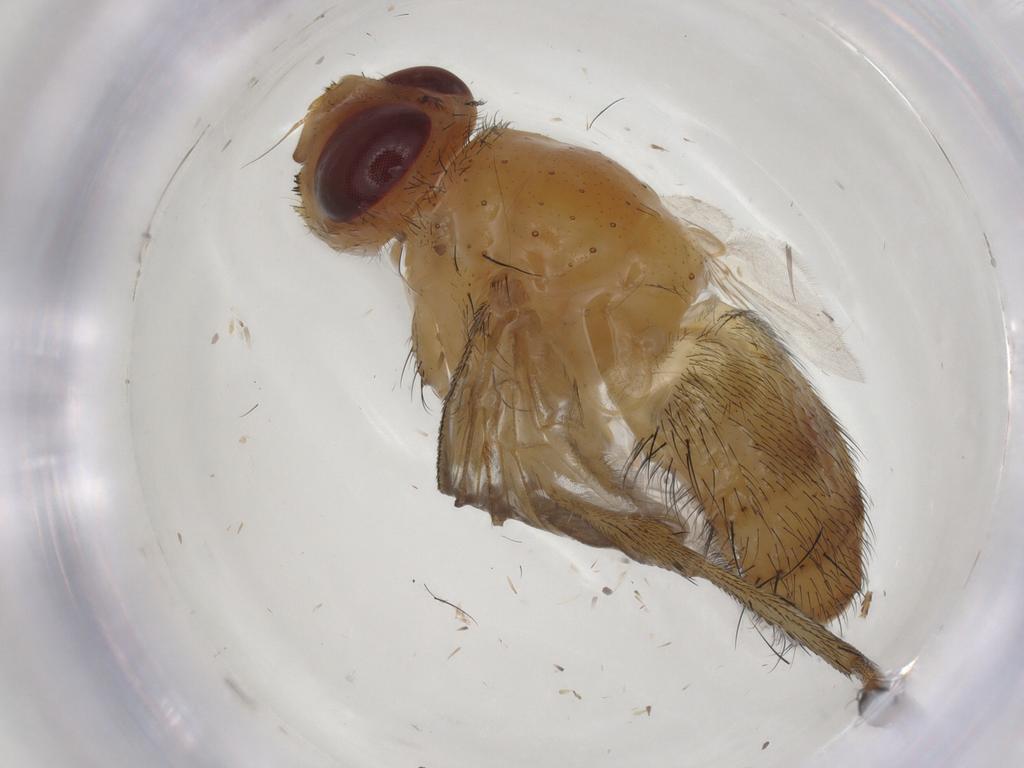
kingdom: Animalia
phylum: Arthropoda
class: Insecta
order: Diptera
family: Tachinidae
